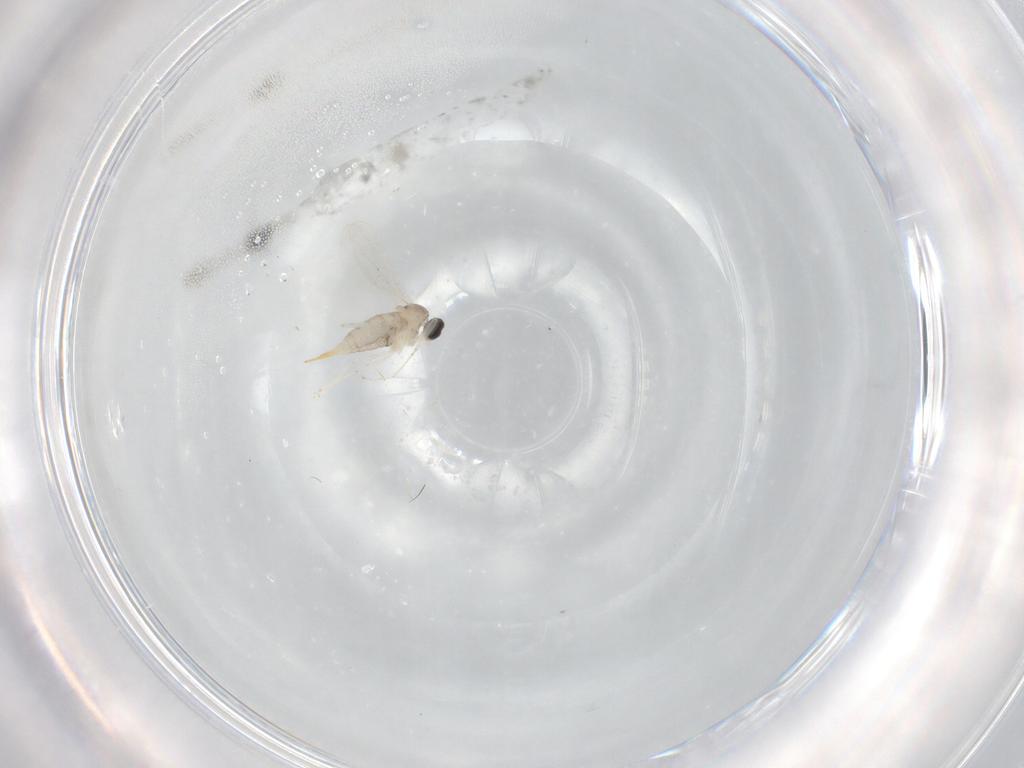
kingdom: Animalia
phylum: Arthropoda
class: Insecta
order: Diptera
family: Cecidomyiidae
